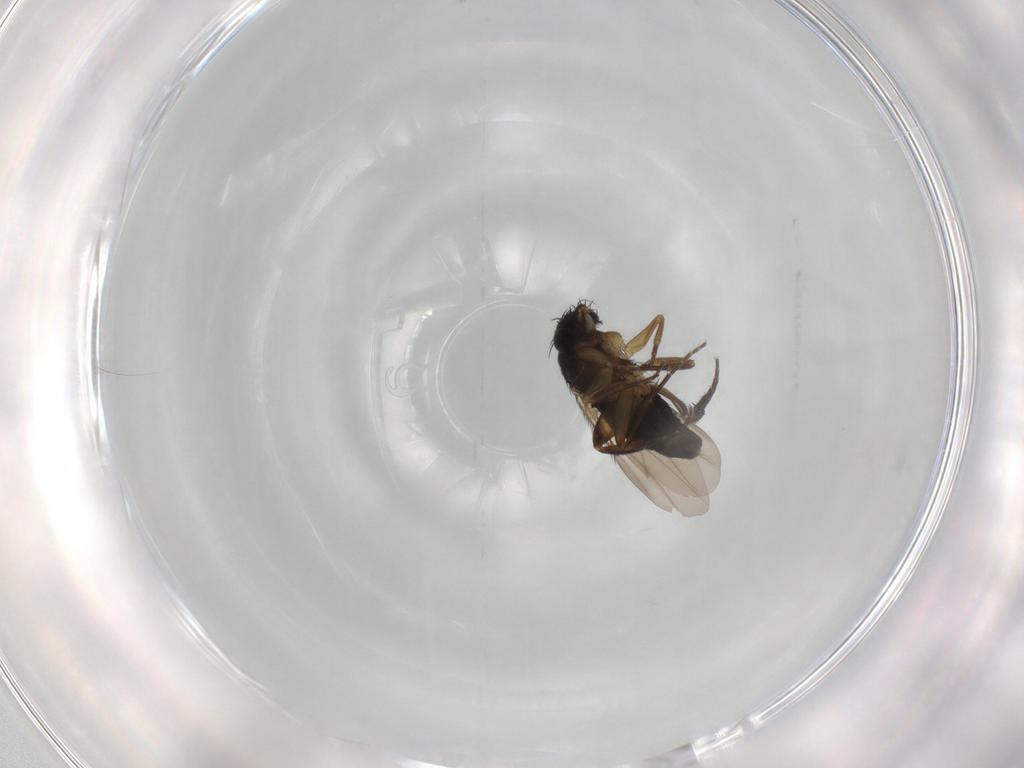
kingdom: Animalia
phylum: Arthropoda
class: Insecta
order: Diptera
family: Phoridae
